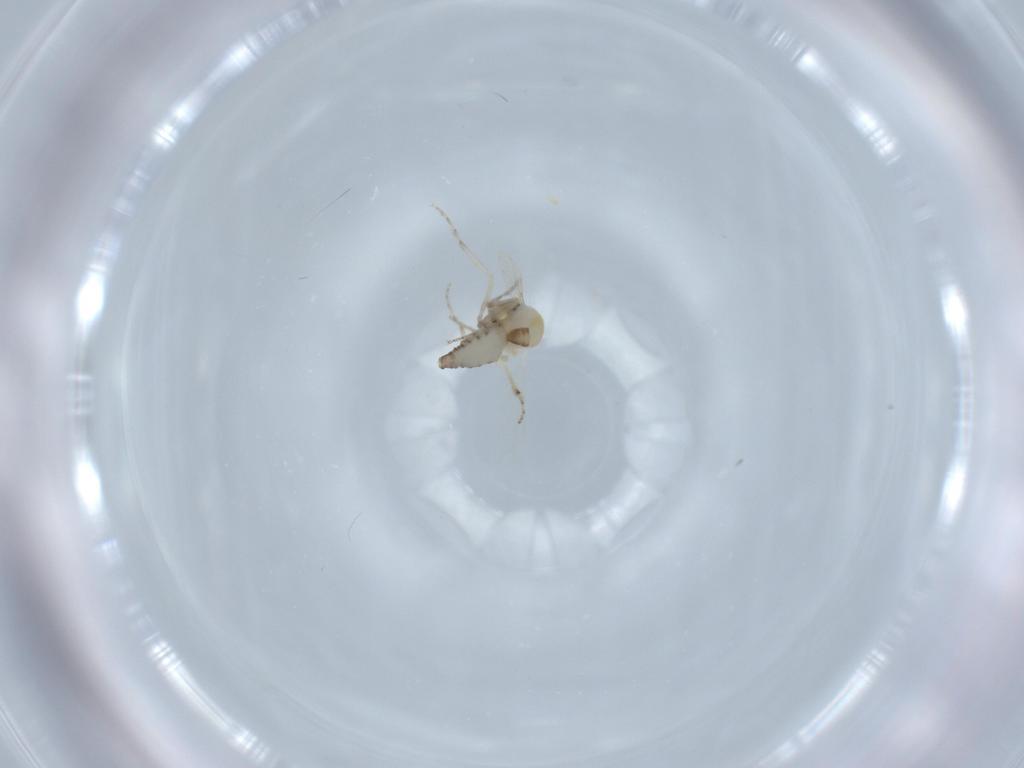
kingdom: Animalia
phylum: Arthropoda
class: Insecta
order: Diptera
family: Ceratopogonidae
